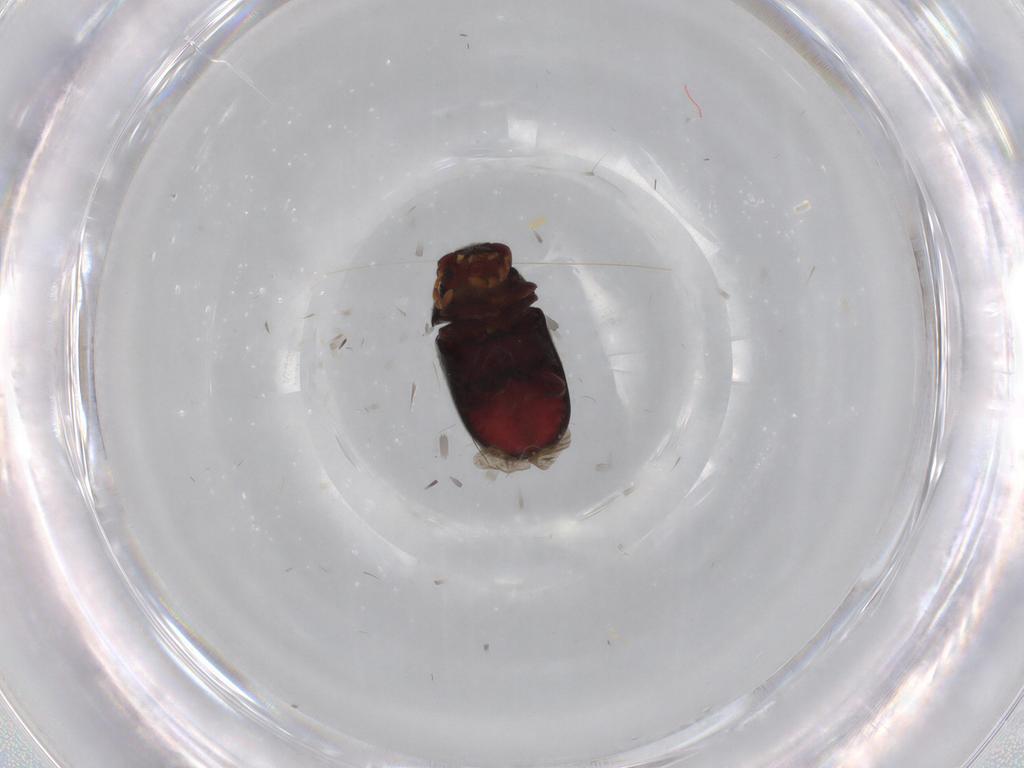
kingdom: Animalia
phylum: Arthropoda
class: Insecta
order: Coleoptera
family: Ptinidae
